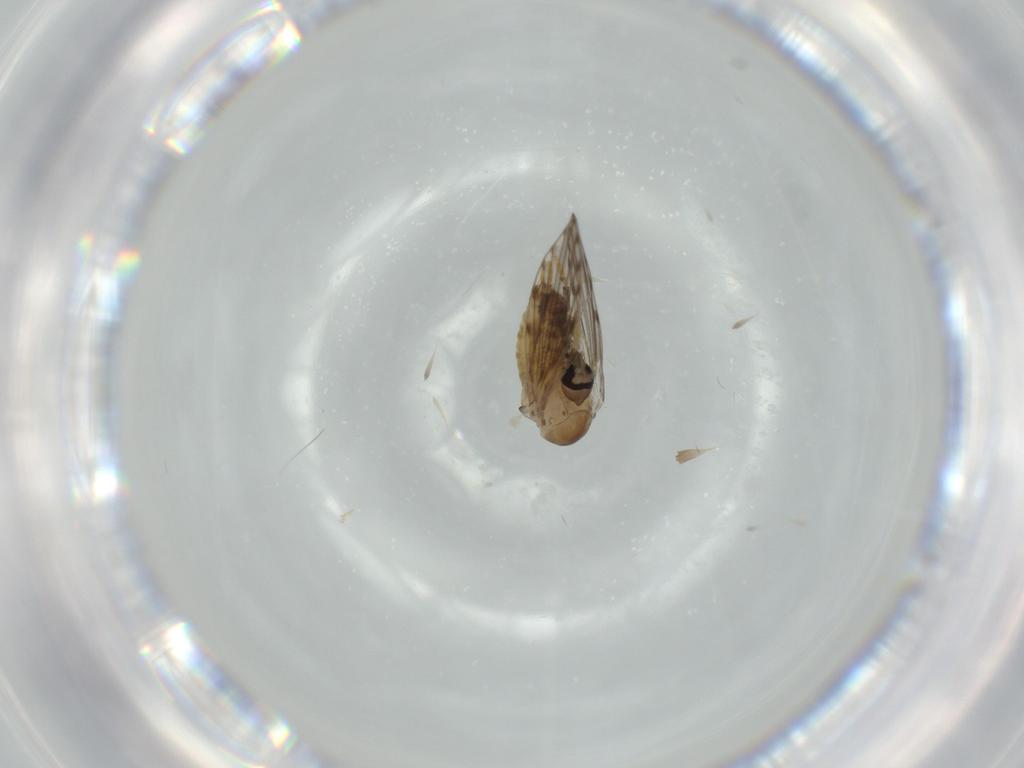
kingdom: Animalia
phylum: Arthropoda
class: Insecta
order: Diptera
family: Psychodidae
